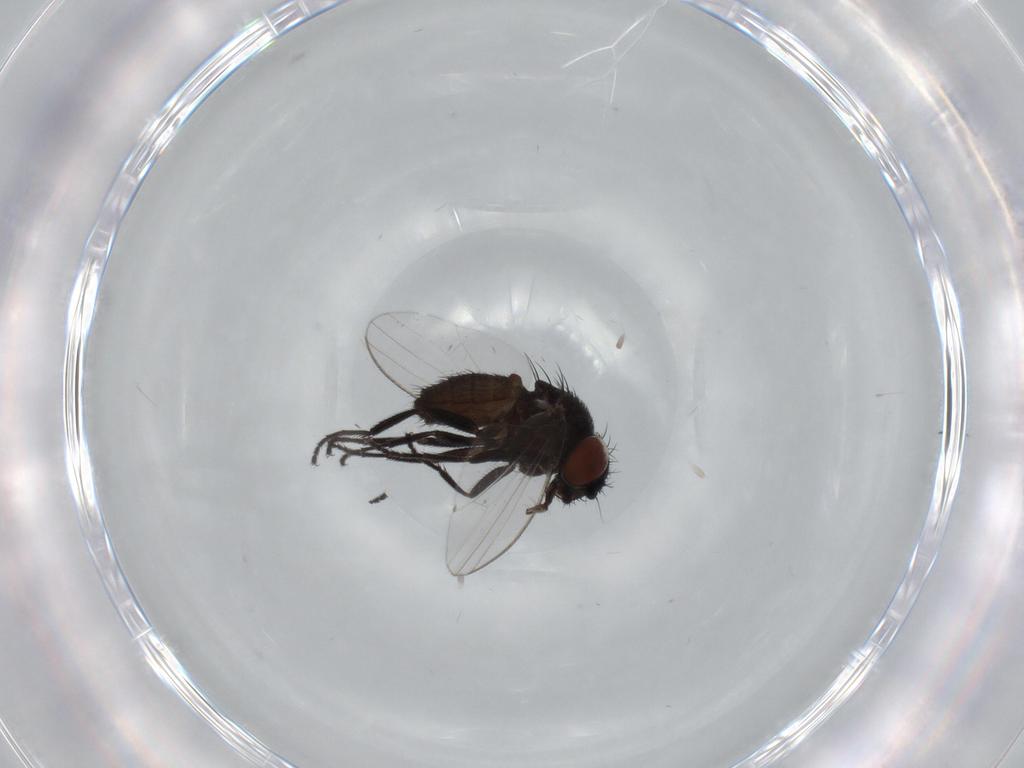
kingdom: Animalia
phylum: Arthropoda
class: Insecta
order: Diptera
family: Milichiidae
